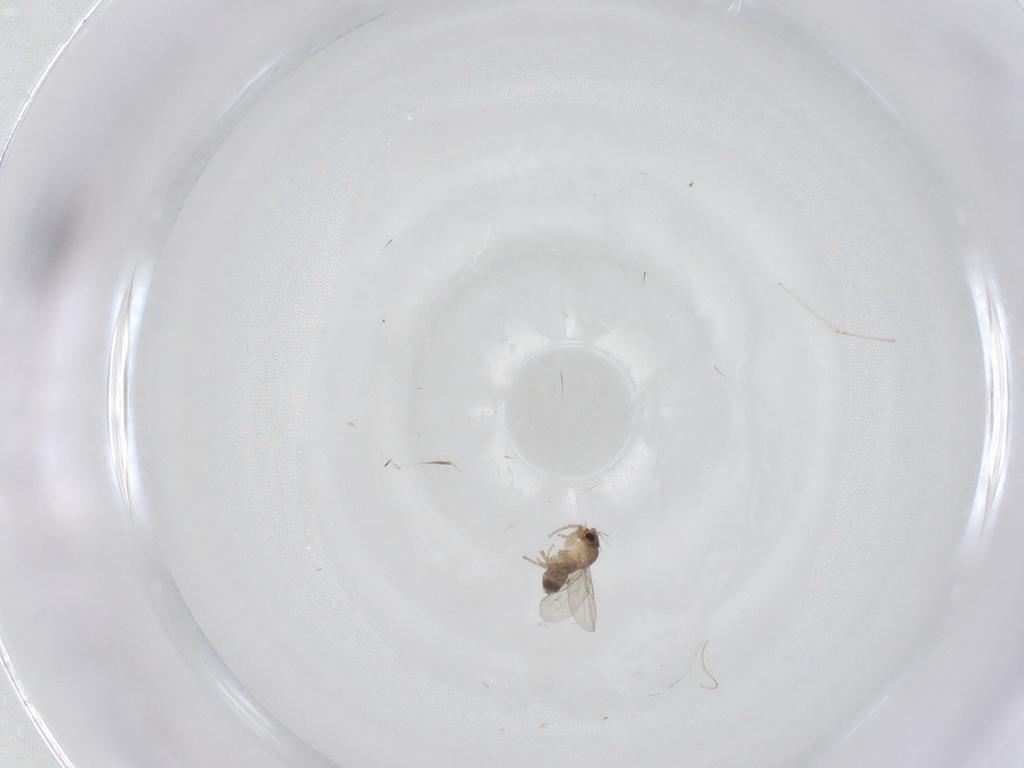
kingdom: Animalia
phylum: Arthropoda
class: Insecta
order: Diptera
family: Cecidomyiidae
